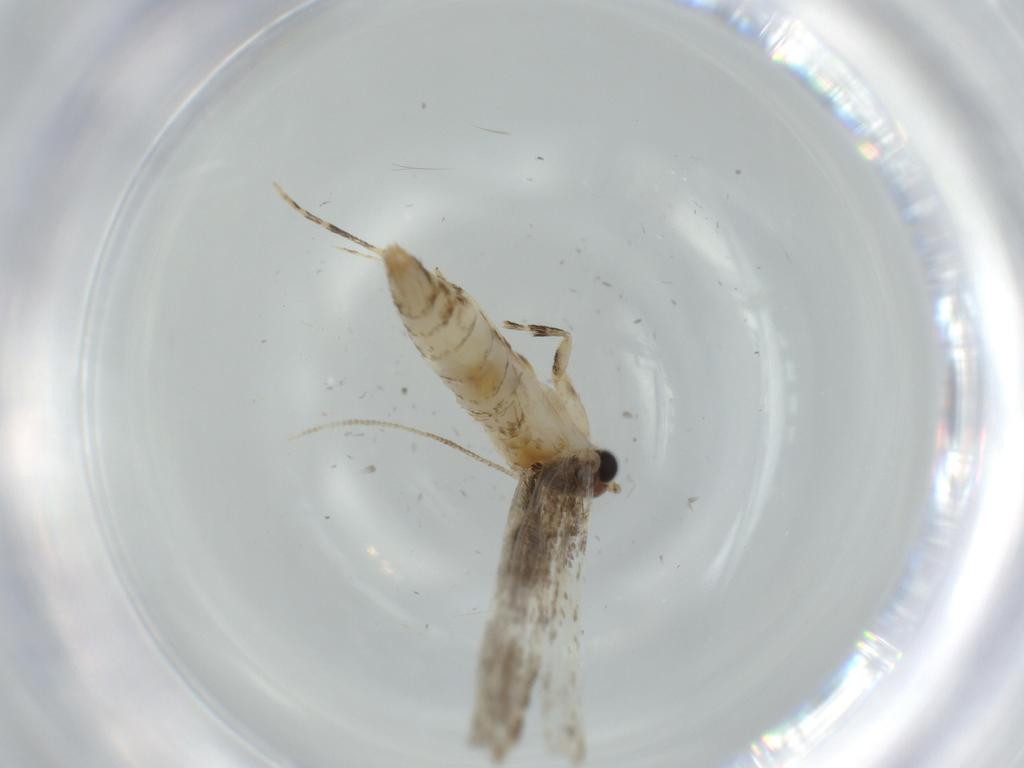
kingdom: Animalia
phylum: Arthropoda
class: Insecta
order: Lepidoptera
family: Tineidae
